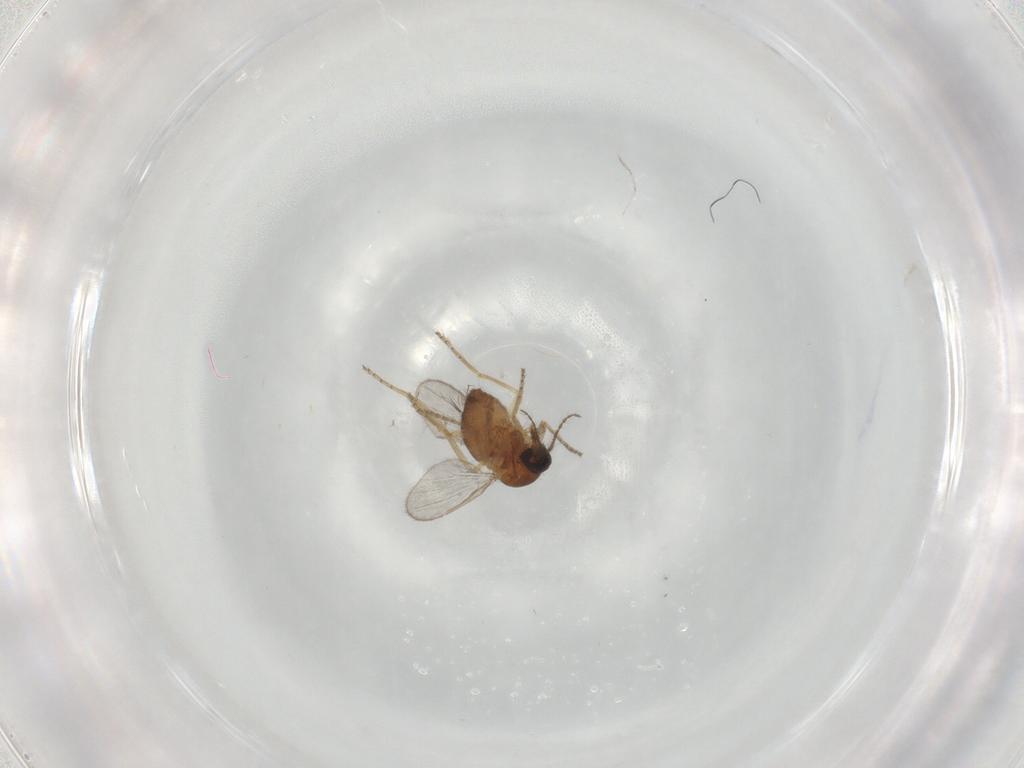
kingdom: Animalia
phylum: Arthropoda
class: Insecta
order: Diptera
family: Ceratopogonidae
